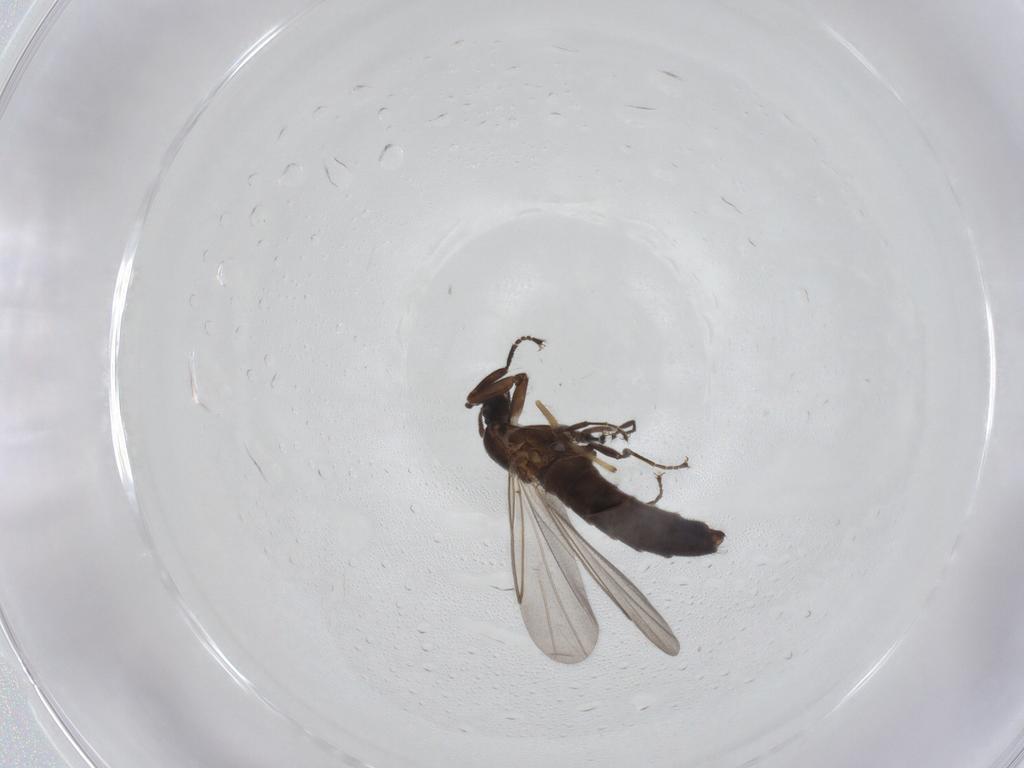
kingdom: Animalia
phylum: Arthropoda
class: Insecta
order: Diptera
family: Scatopsidae
